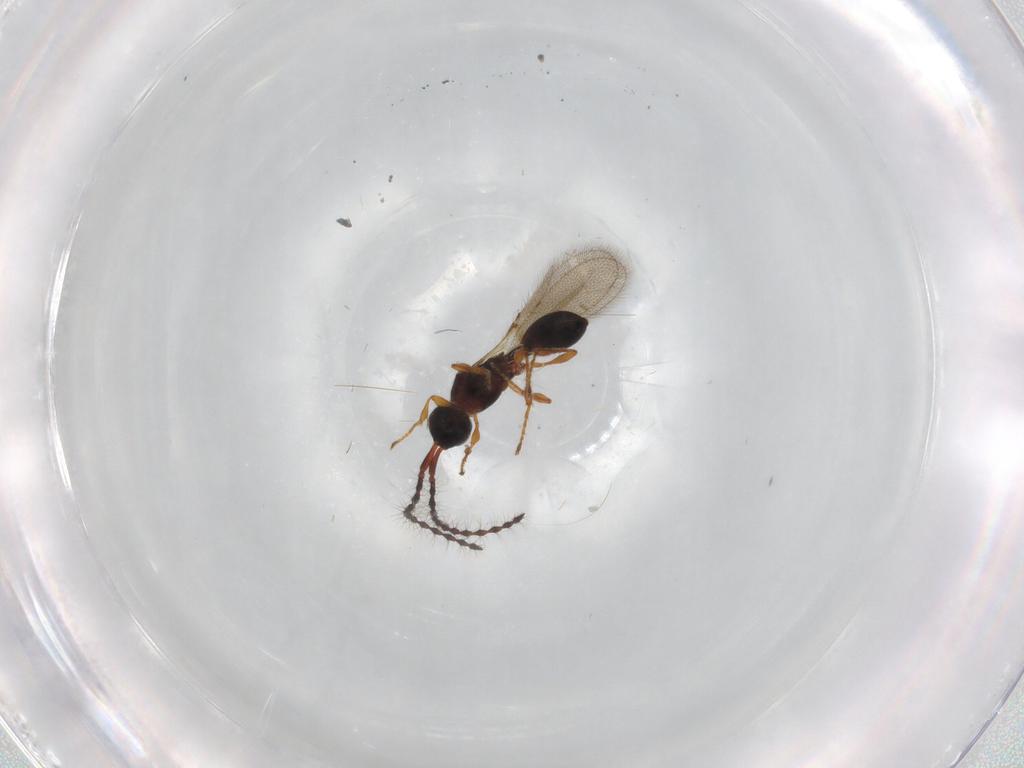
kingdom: Animalia
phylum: Arthropoda
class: Insecta
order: Hymenoptera
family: Diapriidae
